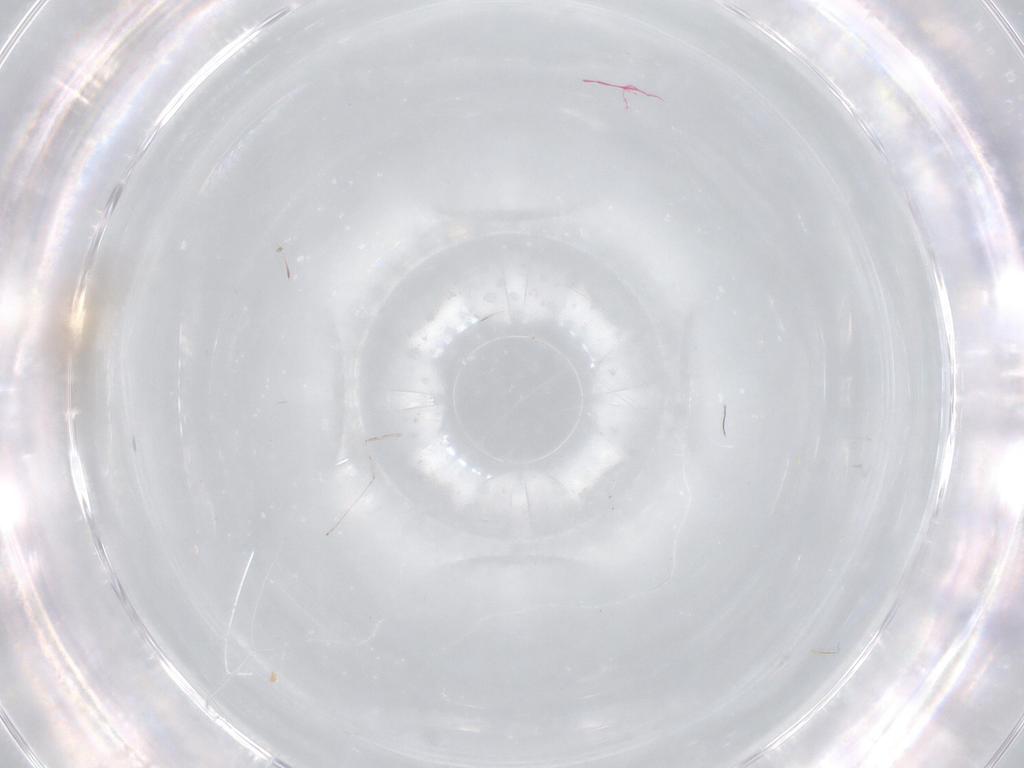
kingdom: Animalia
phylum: Arthropoda
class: Insecta
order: Diptera
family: Cecidomyiidae
